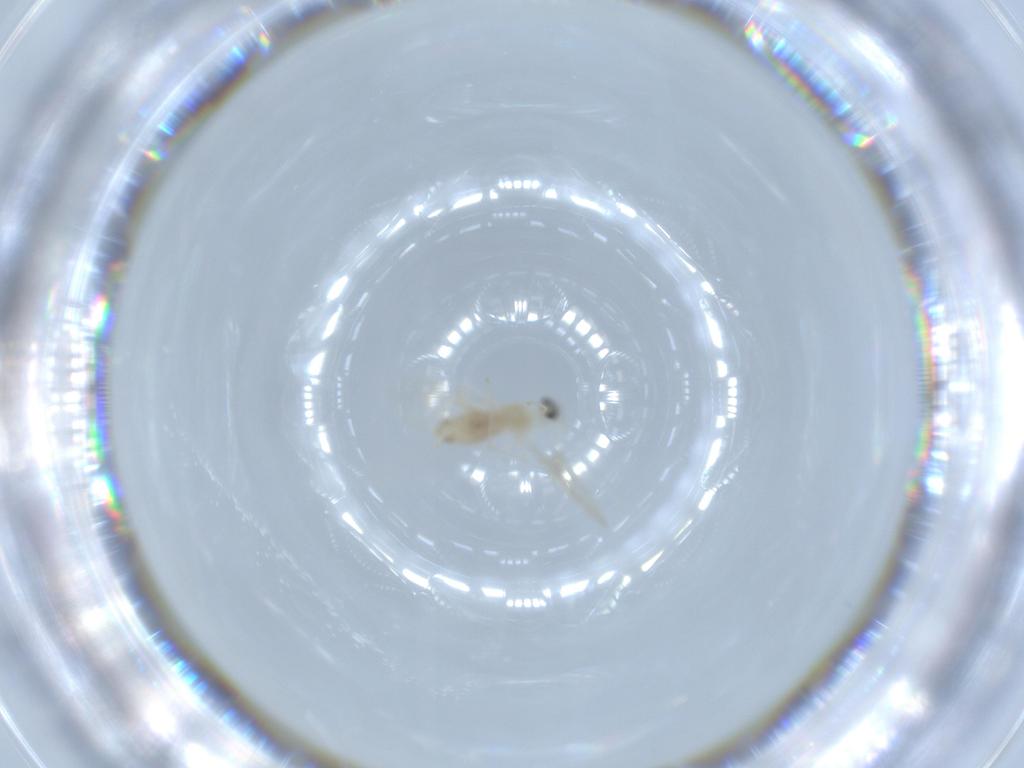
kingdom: Animalia
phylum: Arthropoda
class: Insecta
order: Diptera
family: Cecidomyiidae
